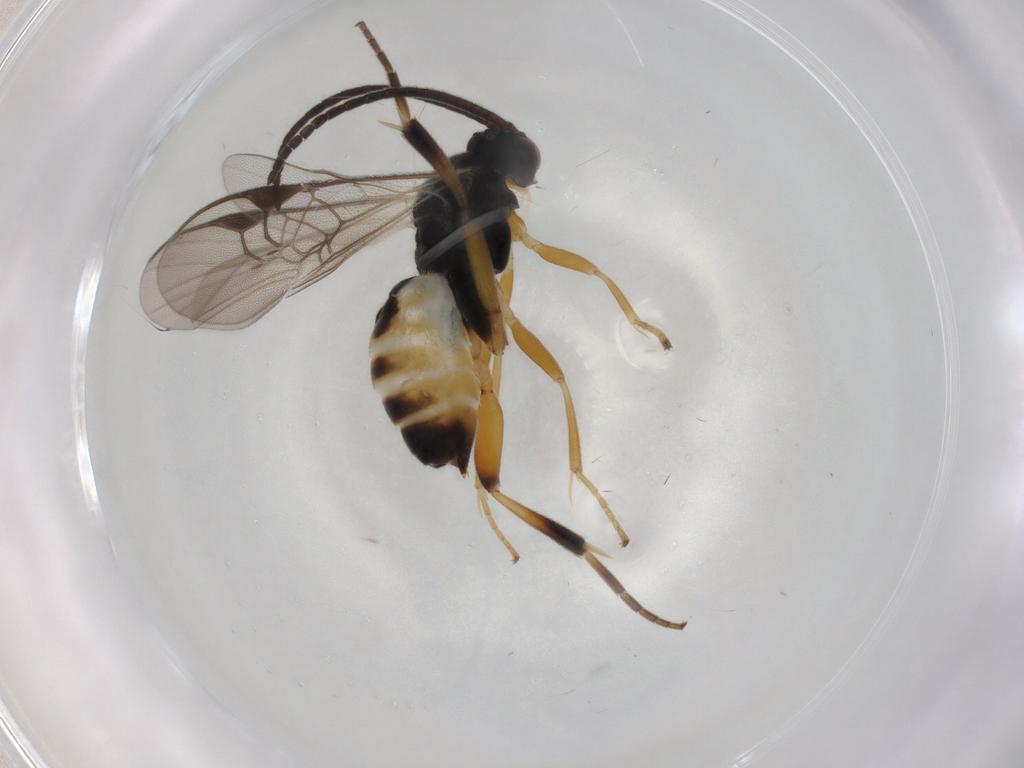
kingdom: Animalia
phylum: Arthropoda
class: Insecta
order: Hymenoptera
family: Braconidae
